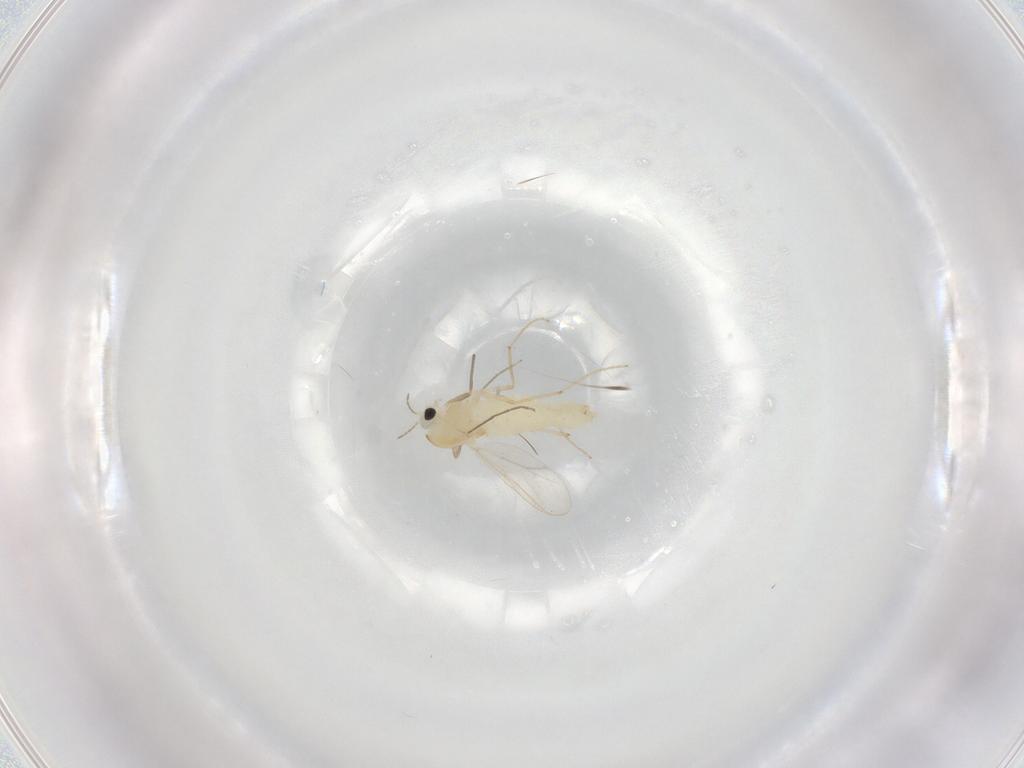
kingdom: Animalia
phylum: Arthropoda
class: Insecta
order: Diptera
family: Chironomidae
